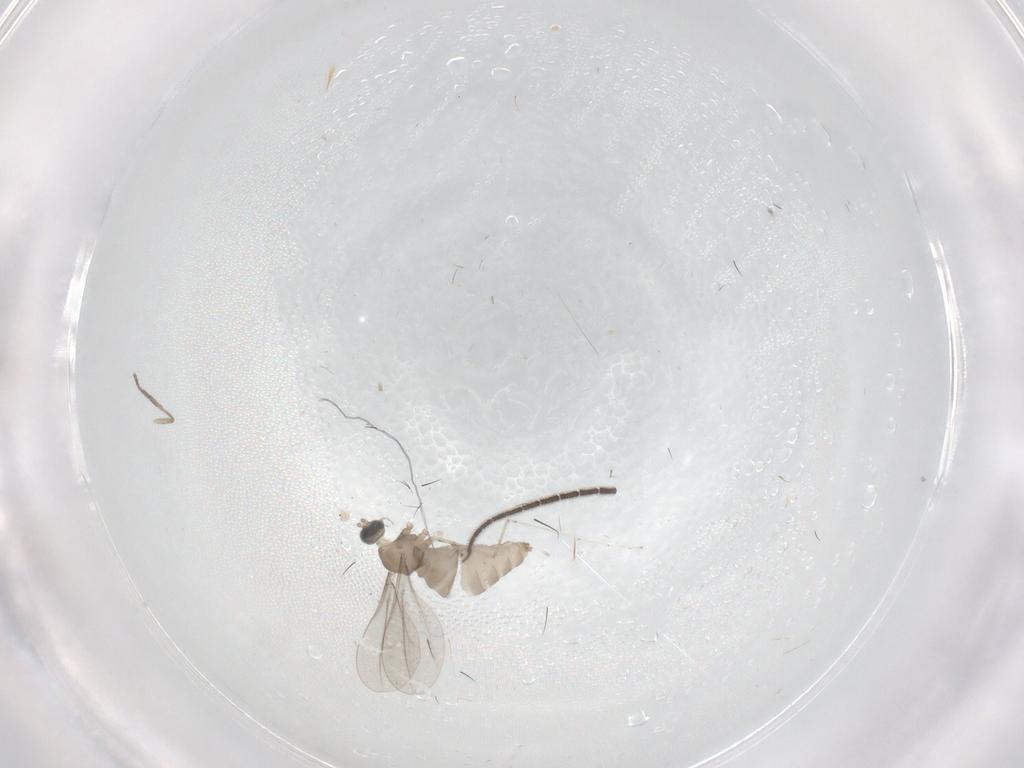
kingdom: Animalia
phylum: Arthropoda
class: Insecta
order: Diptera
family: Cecidomyiidae
